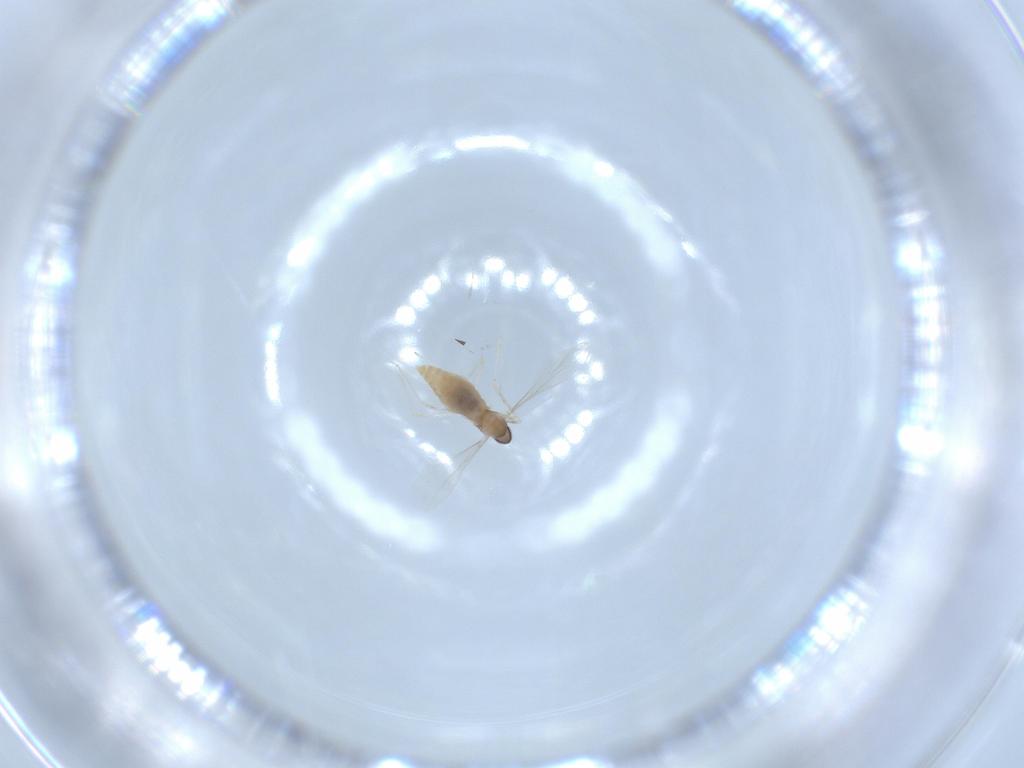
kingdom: Animalia
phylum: Arthropoda
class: Insecta
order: Diptera
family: Cecidomyiidae
